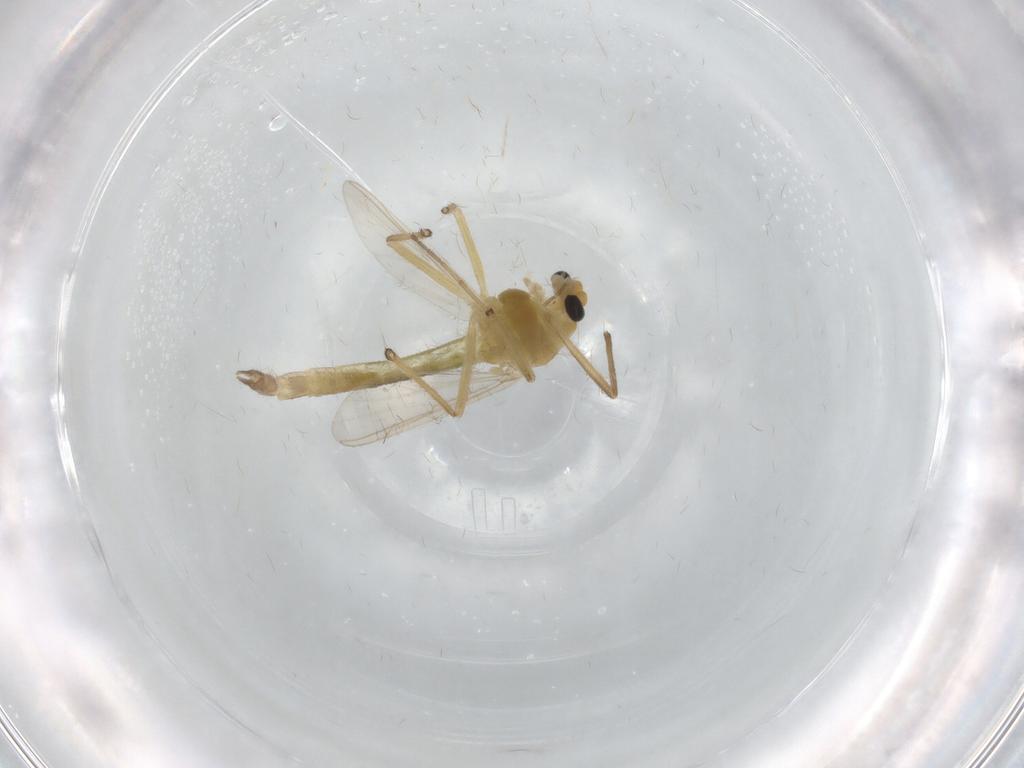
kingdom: Animalia
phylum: Arthropoda
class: Insecta
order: Diptera
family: Chironomidae
